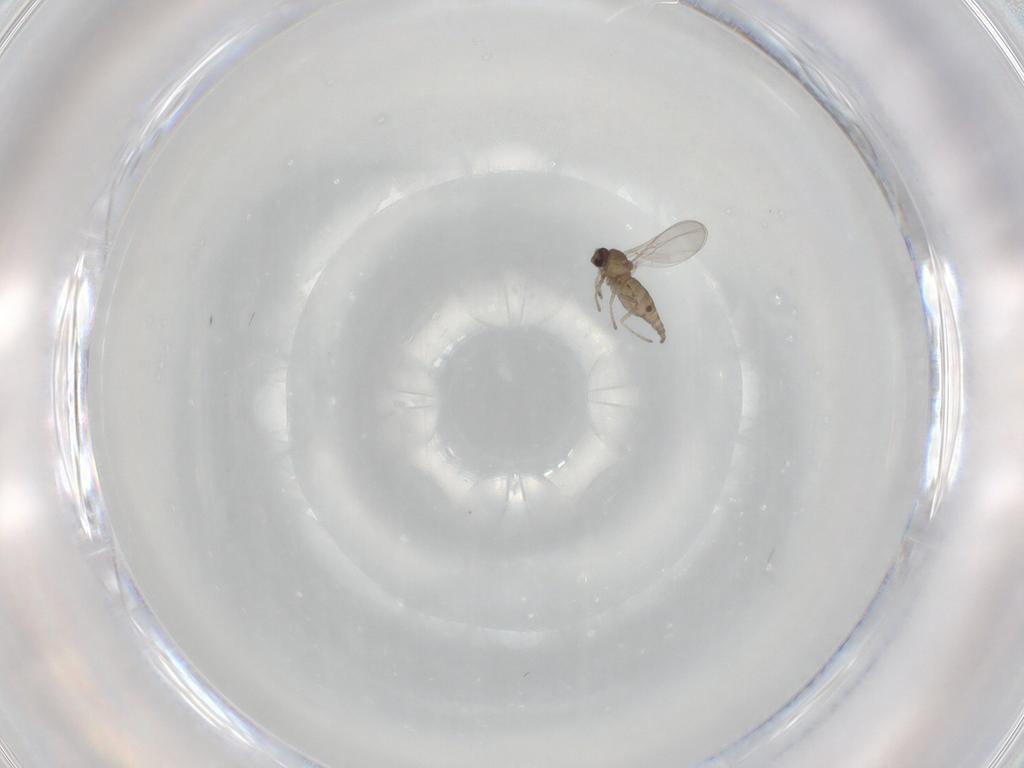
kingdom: Animalia
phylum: Arthropoda
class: Insecta
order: Diptera
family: Cecidomyiidae
